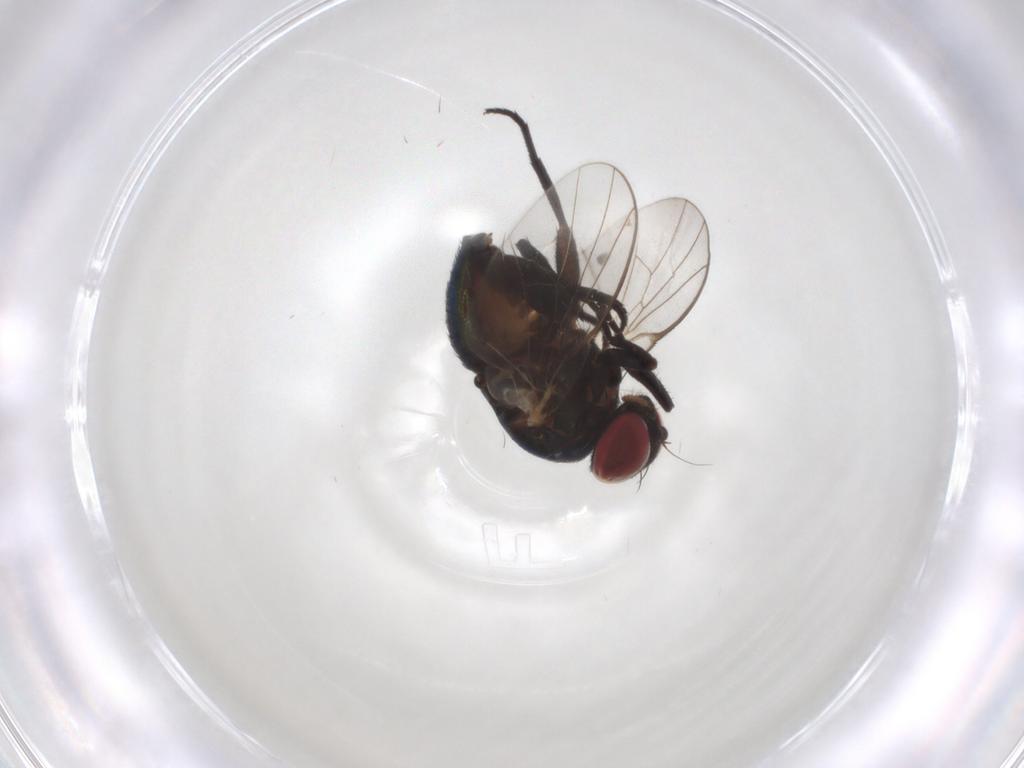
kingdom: Animalia
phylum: Arthropoda
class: Insecta
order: Diptera
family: Agromyzidae
